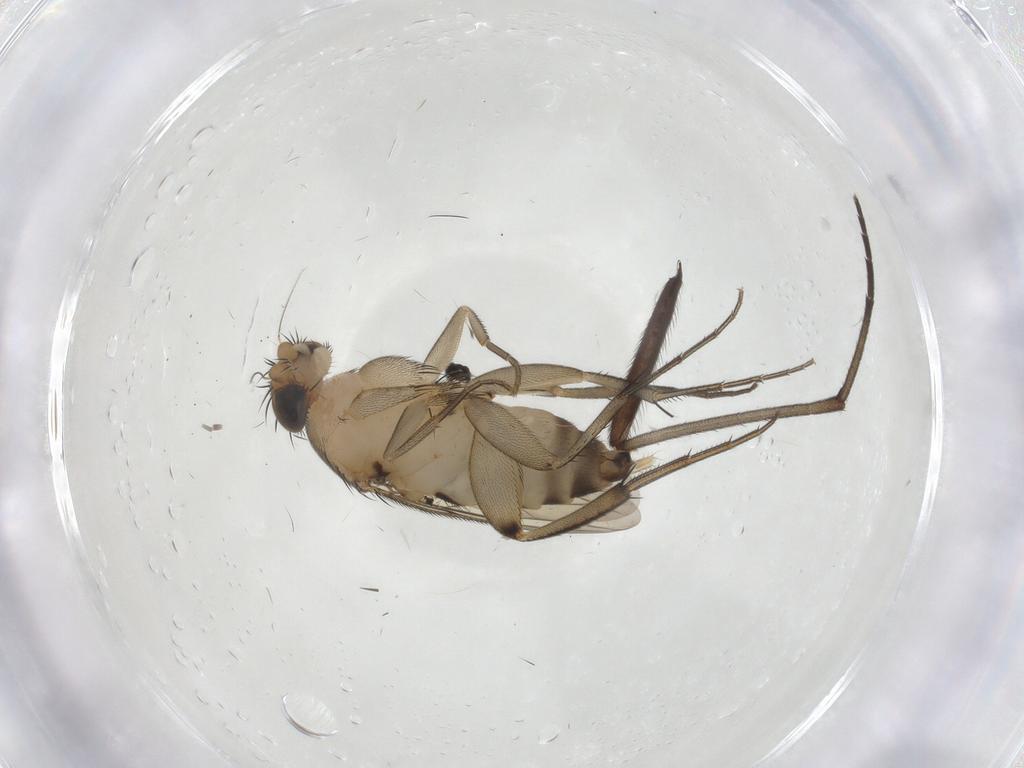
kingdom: Animalia
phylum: Arthropoda
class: Insecta
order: Diptera
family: Phoridae
